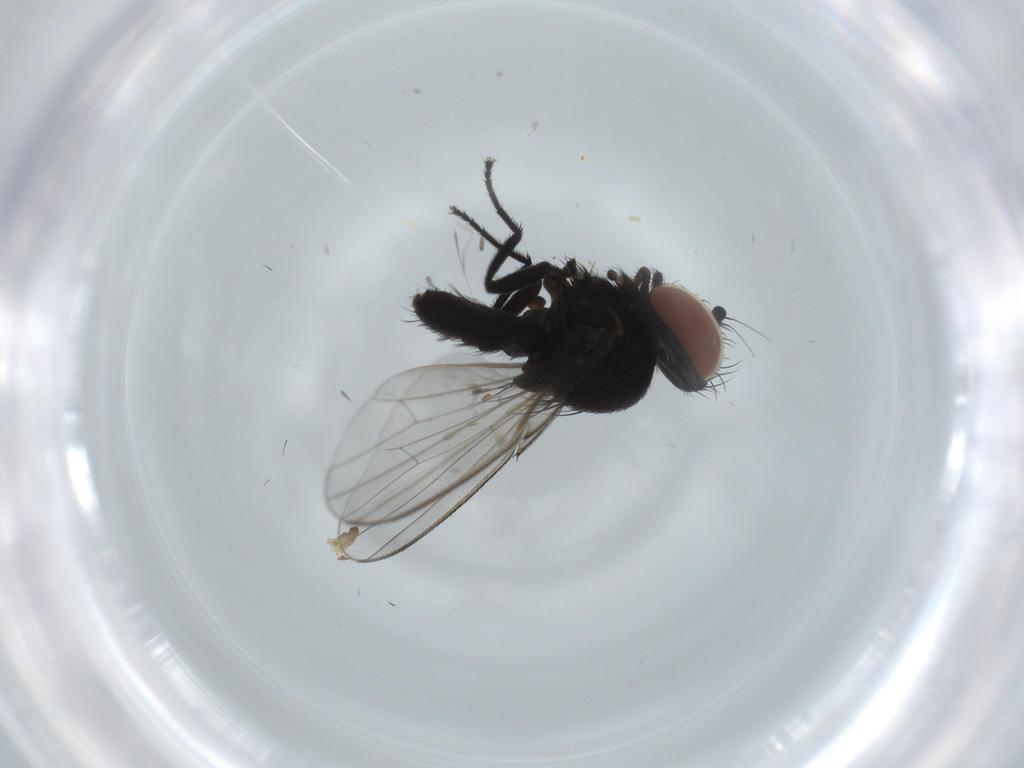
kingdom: Animalia
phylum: Arthropoda
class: Insecta
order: Diptera
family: Milichiidae
